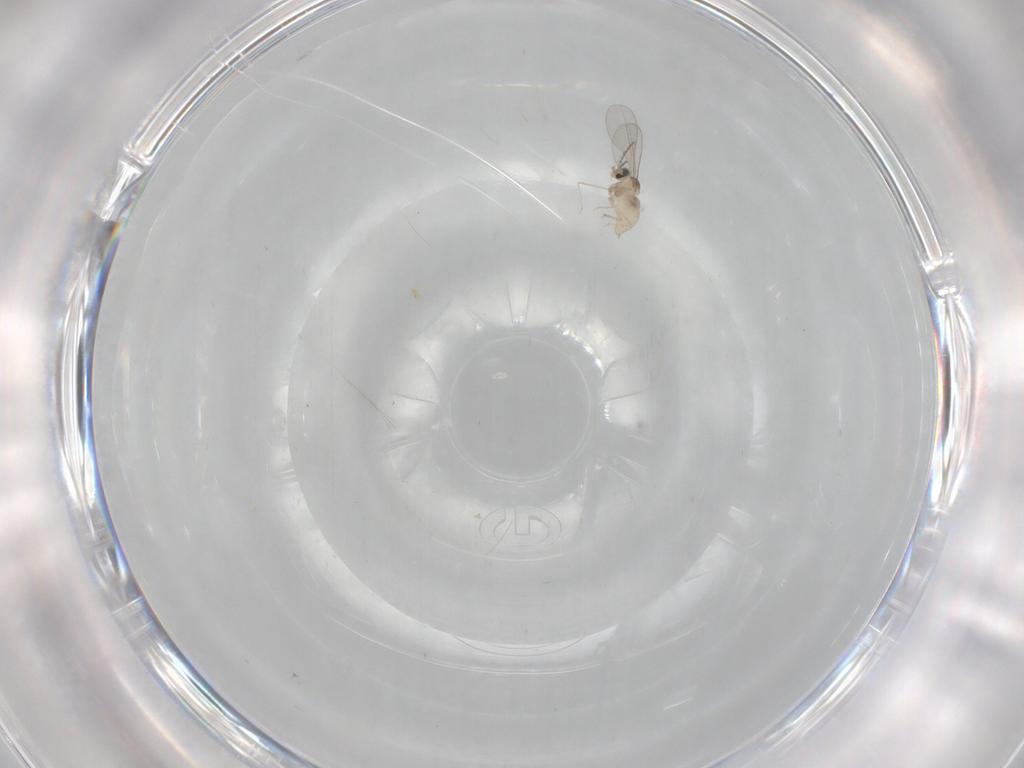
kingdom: Animalia
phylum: Arthropoda
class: Insecta
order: Diptera
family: Cecidomyiidae
